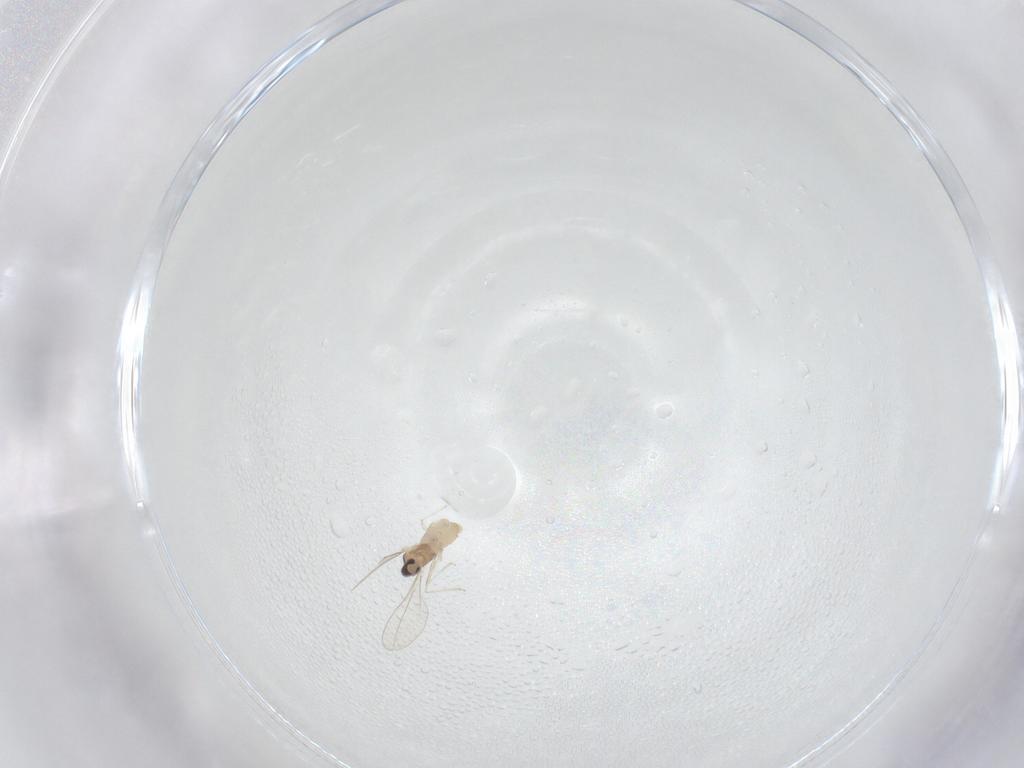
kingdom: Animalia
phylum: Arthropoda
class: Insecta
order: Diptera
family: Cecidomyiidae
